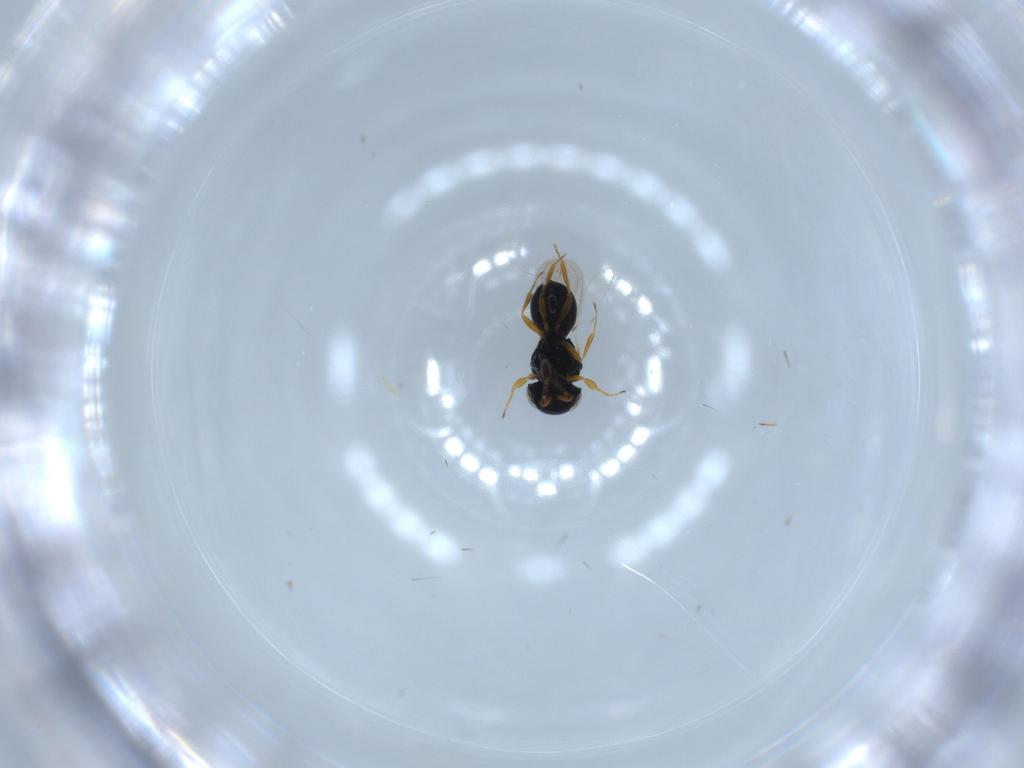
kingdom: Animalia
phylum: Arthropoda
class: Insecta
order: Hymenoptera
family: Scelionidae
